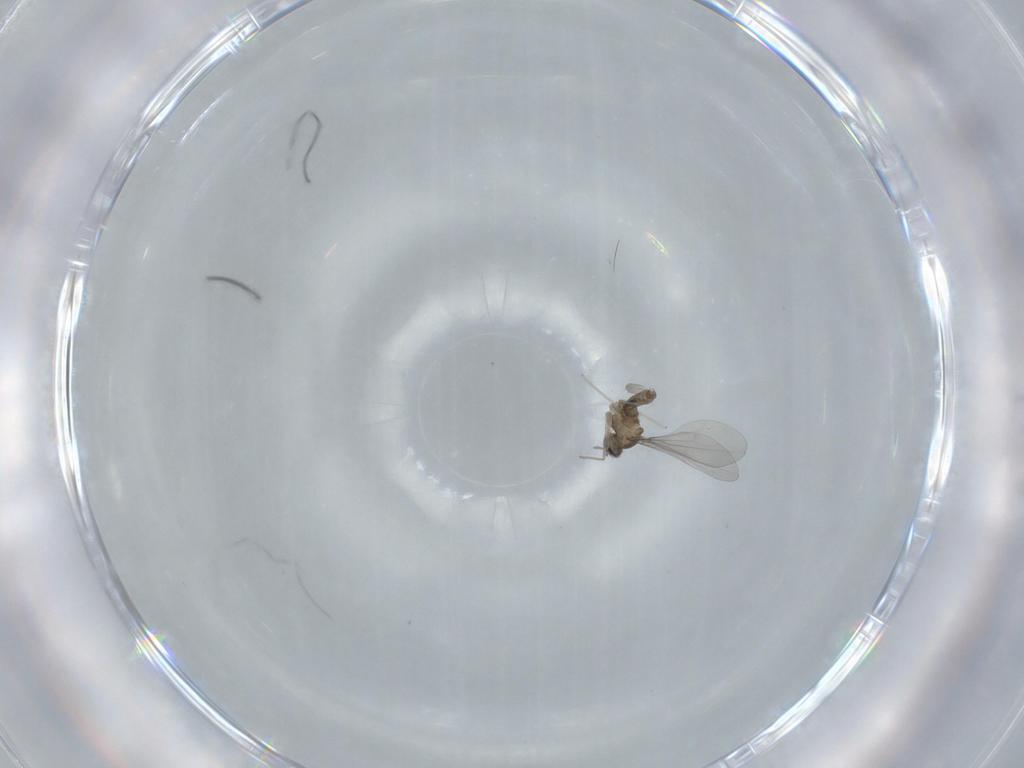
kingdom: Animalia
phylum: Arthropoda
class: Insecta
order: Diptera
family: Cecidomyiidae
